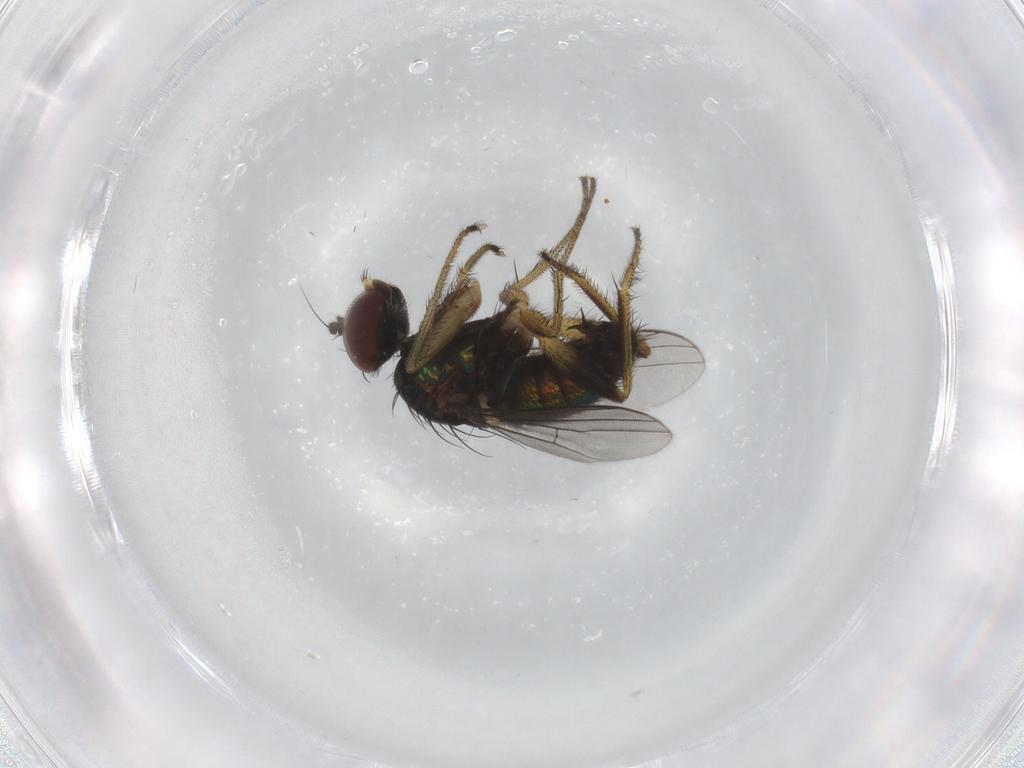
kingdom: Animalia
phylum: Arthropoda
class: Insecta
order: Diptera
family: Dolichopodidae
